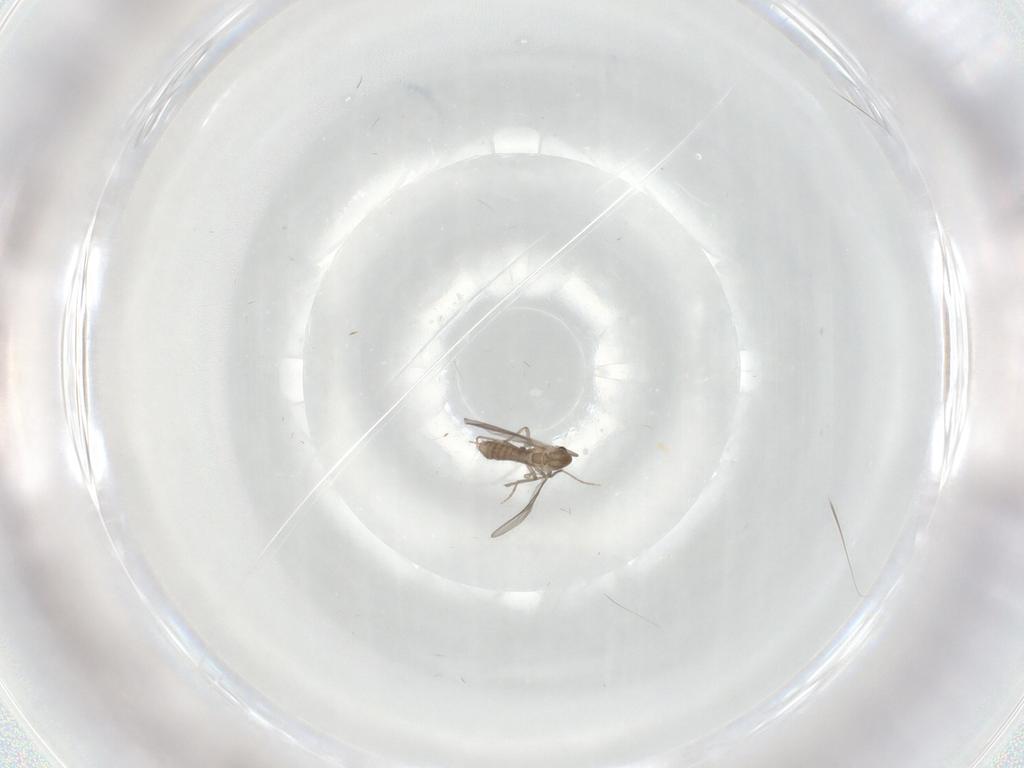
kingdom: Animalia
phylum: Arthropoda
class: Insecta
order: Diptera
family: Chironomidae
